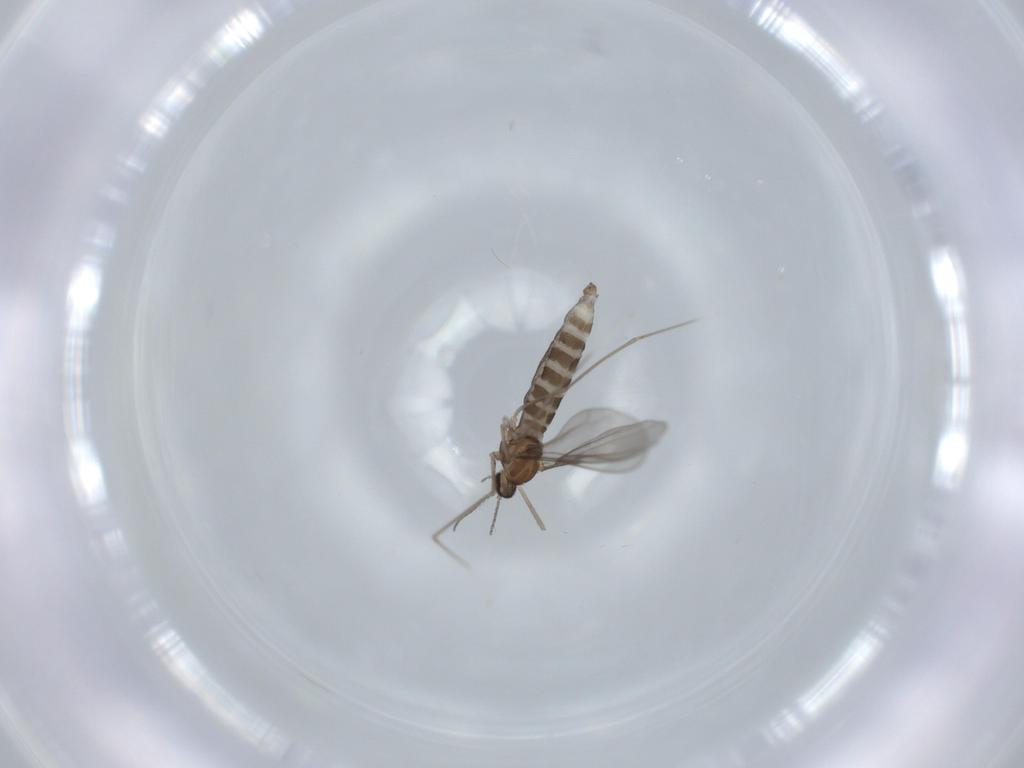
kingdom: Animalia
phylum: Arthropoda
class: Insecta
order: Diptera
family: Cecidomyiidae
